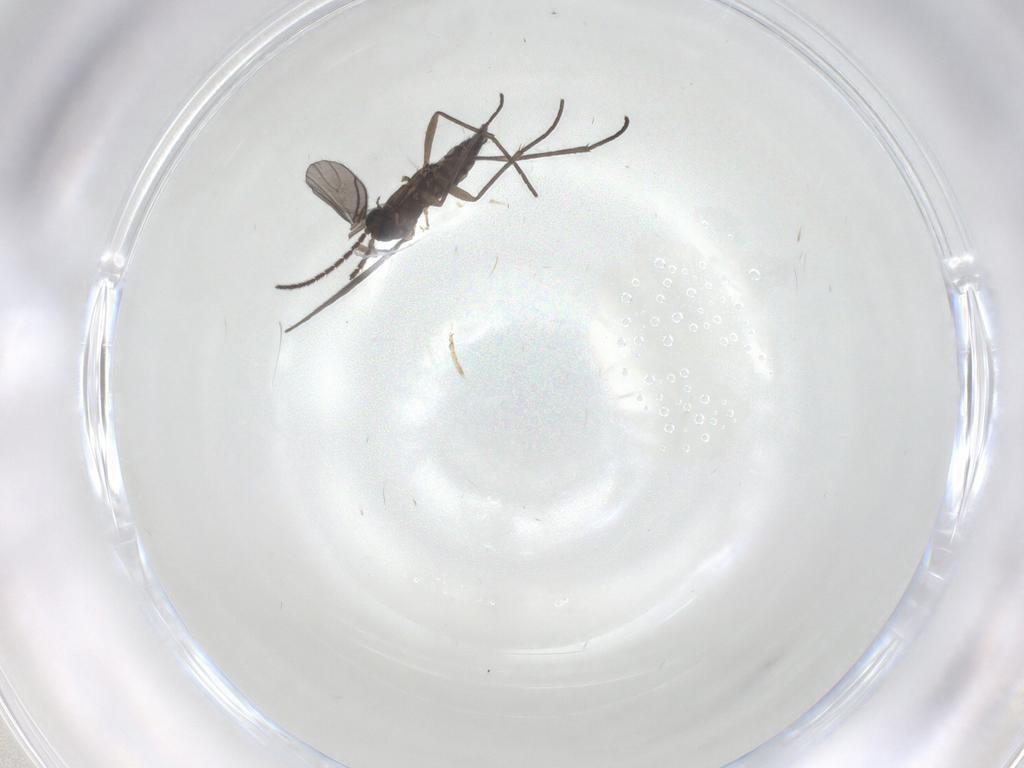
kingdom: Animalia
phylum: Arthropoda
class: Insecta
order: Diptera
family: Sciaridae
